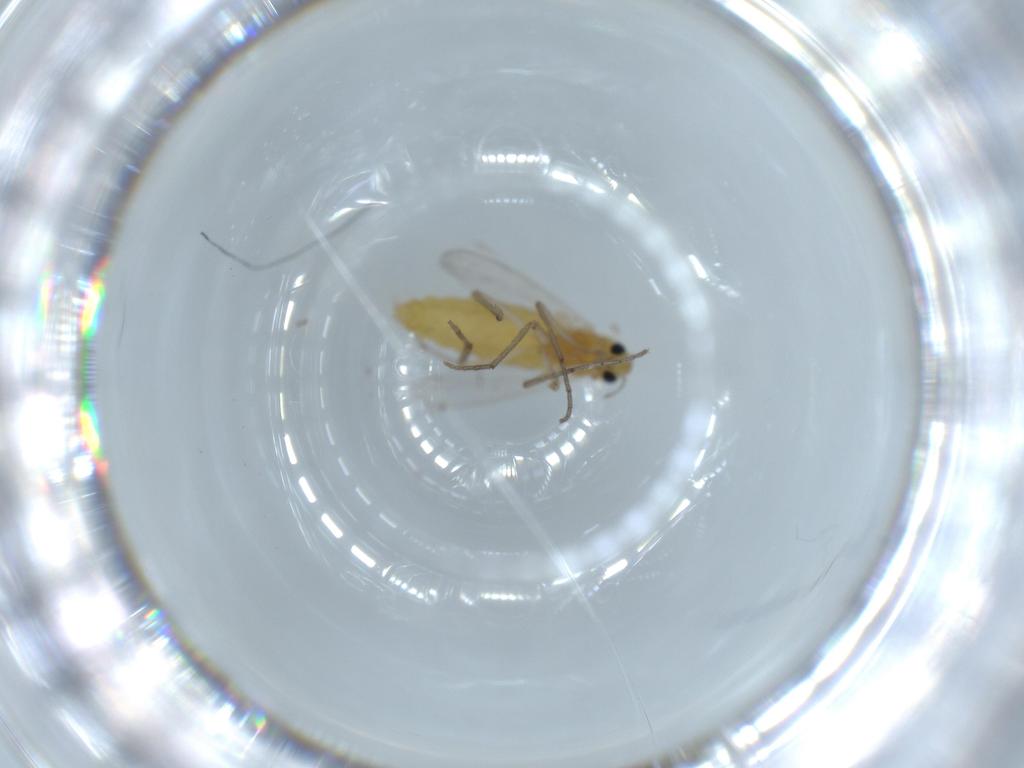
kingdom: Animalia
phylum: Arthropoda
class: Insecta
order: Diptera
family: Chironomidae
